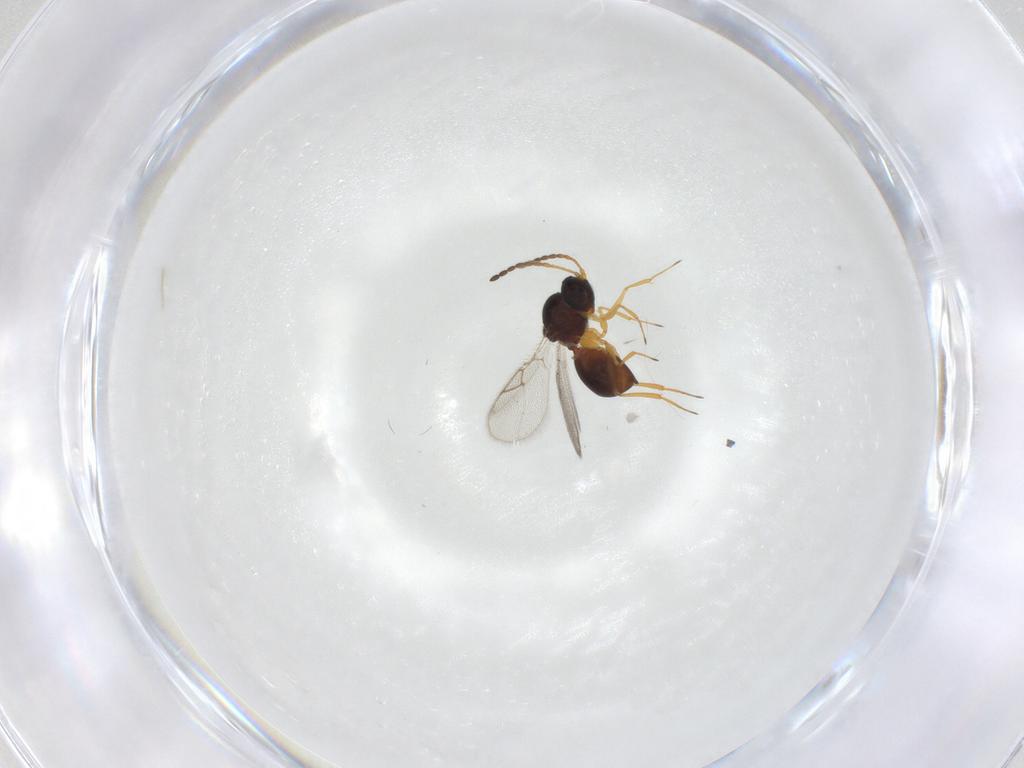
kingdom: Animalia
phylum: Arthropoda
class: Insecta
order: Hymenoptera
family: Figitidae
